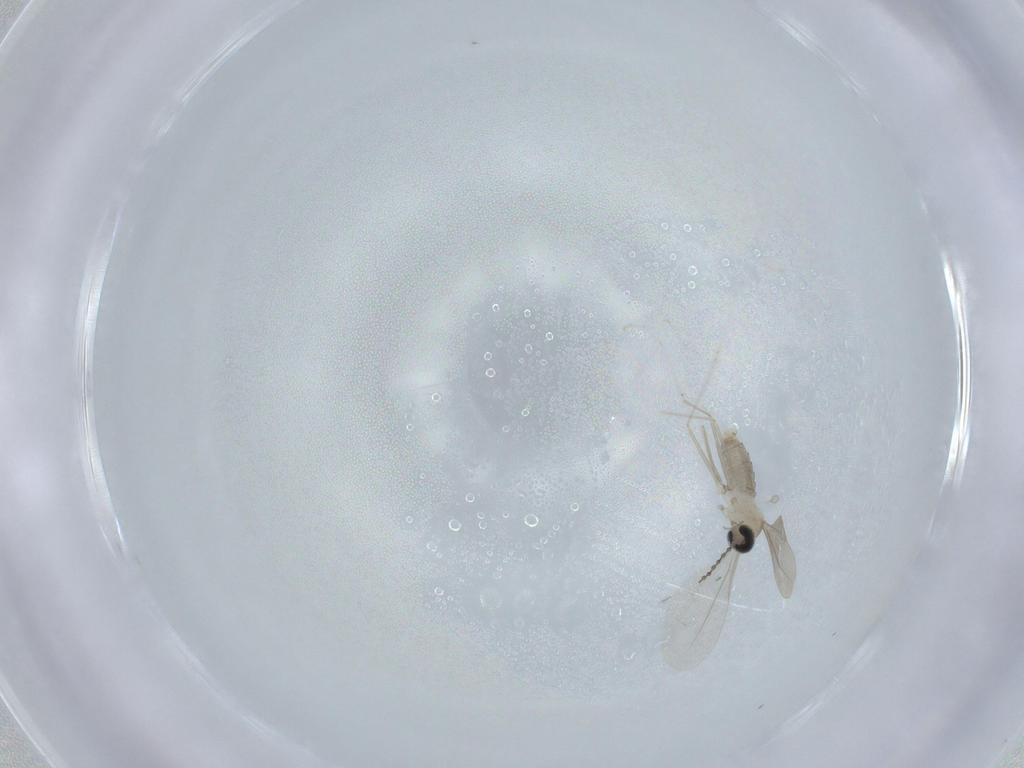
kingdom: Animalia
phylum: Arthropoda
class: Insecta
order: Diptera
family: Cecidomyiidae
